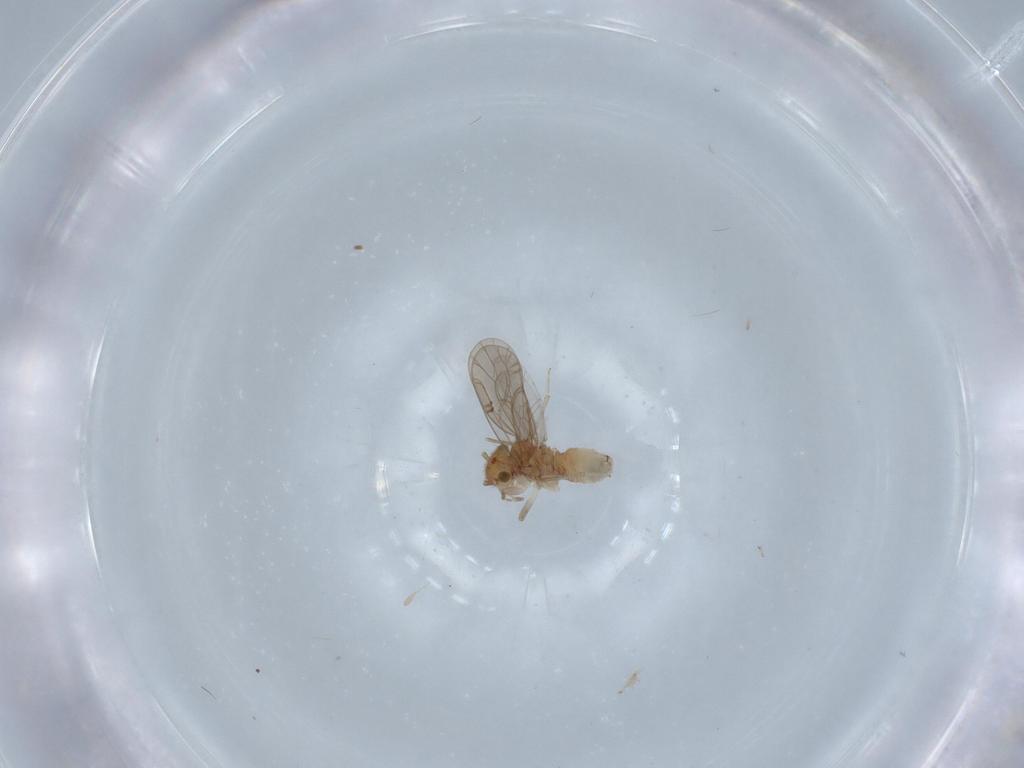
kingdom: Animalia
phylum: Arthropoda
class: Insecta
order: Psocodea
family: Ectopsocidae
